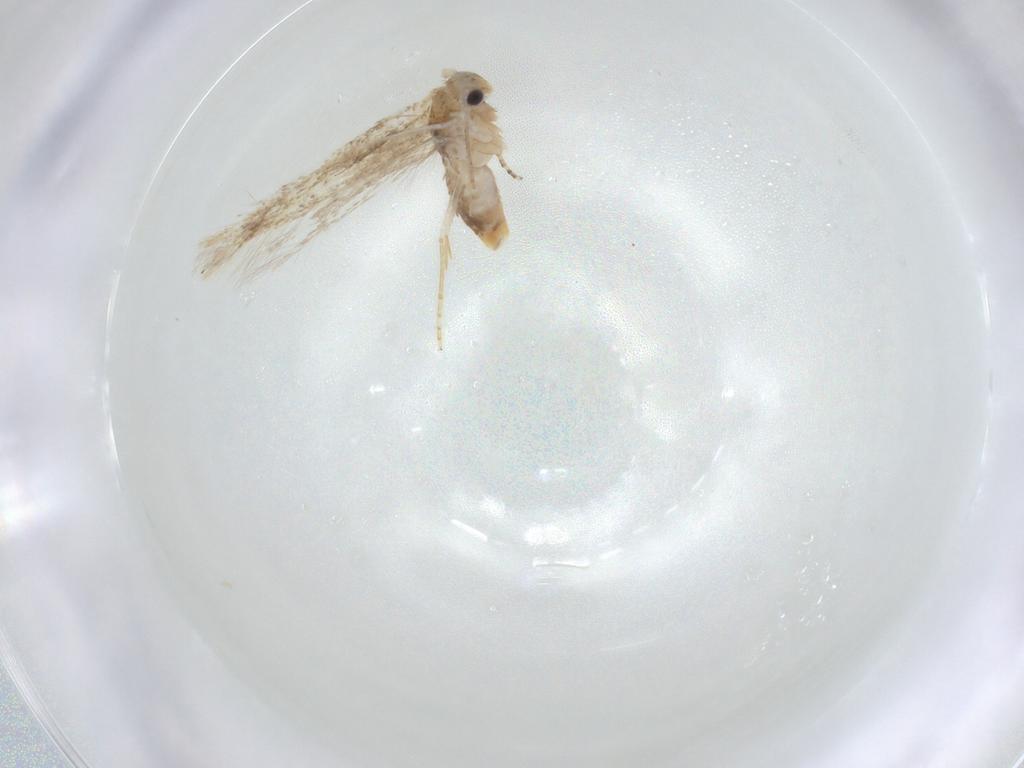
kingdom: Animalia
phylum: Arthropoda
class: Insecta
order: Lepidoptera
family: Bucculatricidae
